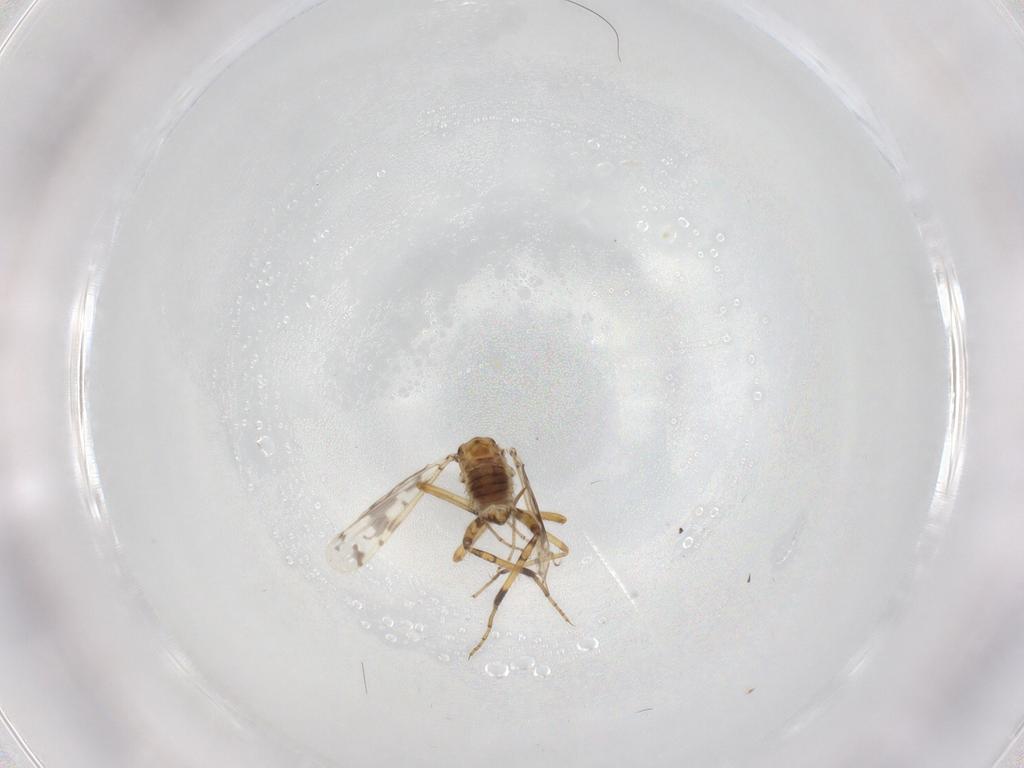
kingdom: Animalia
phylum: Arthropoda
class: Insecta
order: Diptera
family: Ceratopogonidae
